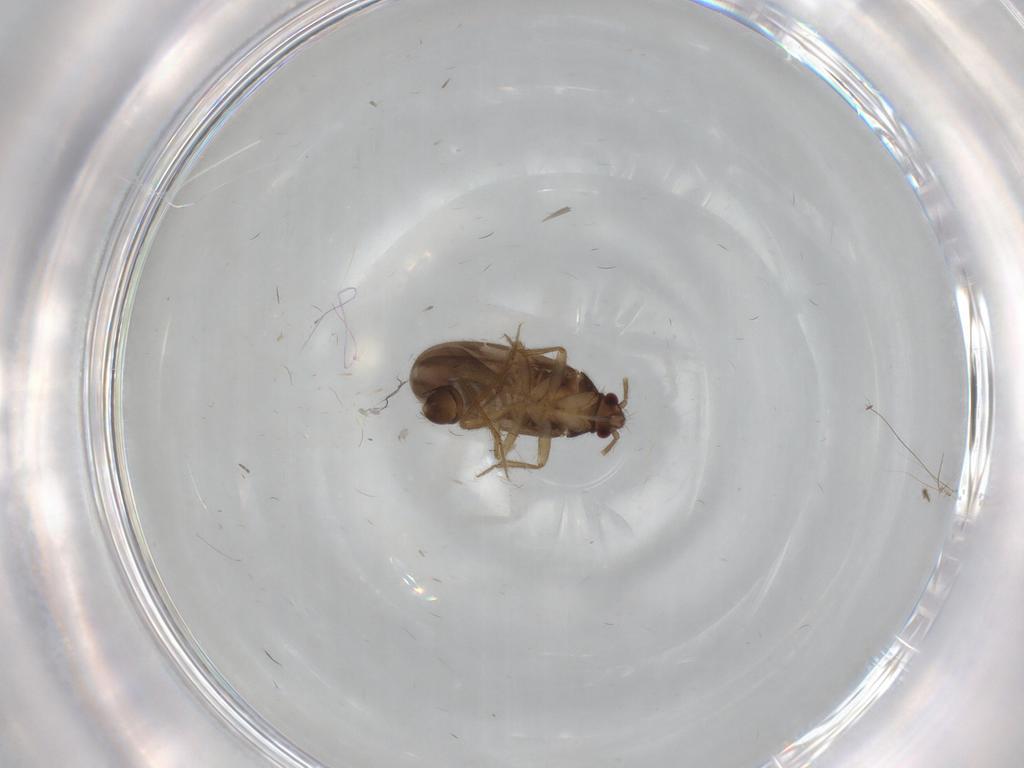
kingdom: Animalia
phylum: Arthropoda
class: Insecta
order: Hemiptera
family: Ceratocombidae
